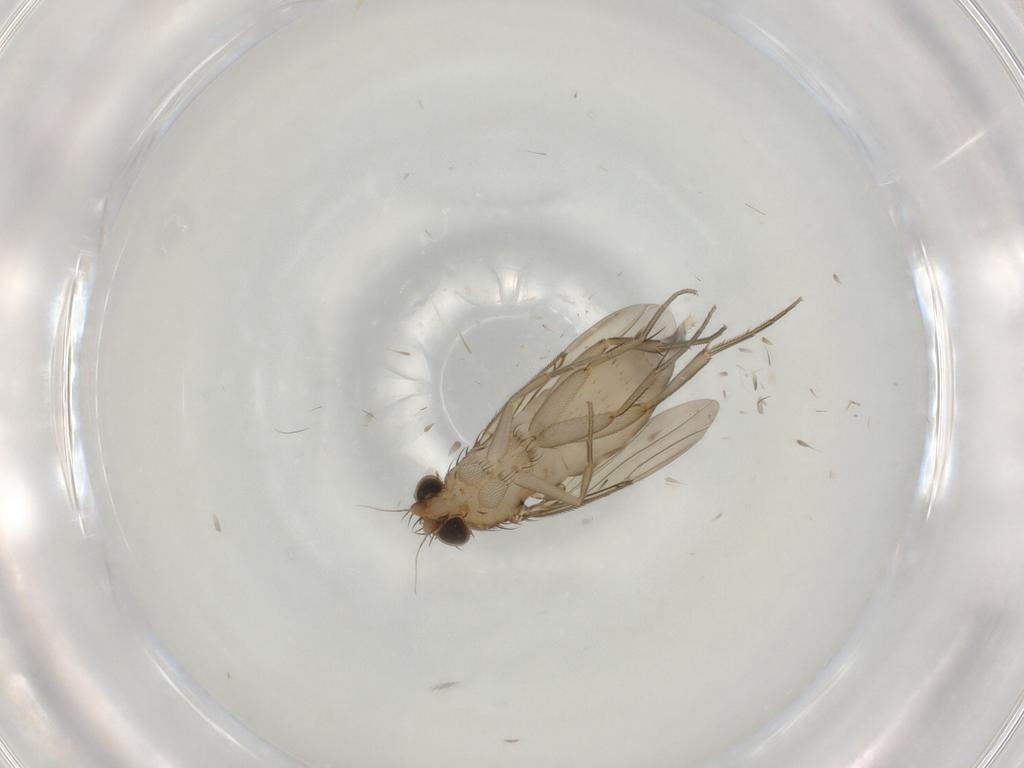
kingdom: Animalia
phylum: Arthropoda
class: Insecta
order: Diptera
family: Phoridae
